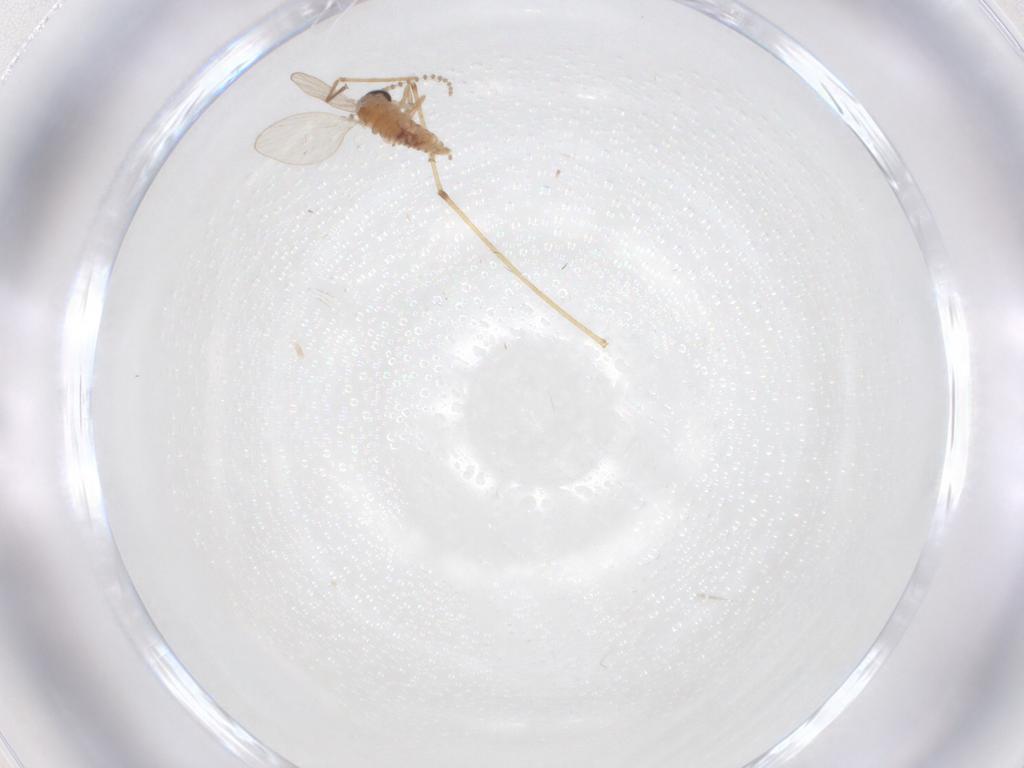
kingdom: Animalia
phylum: Arthropoda
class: Insecta
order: Diptera
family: Psychodidae
